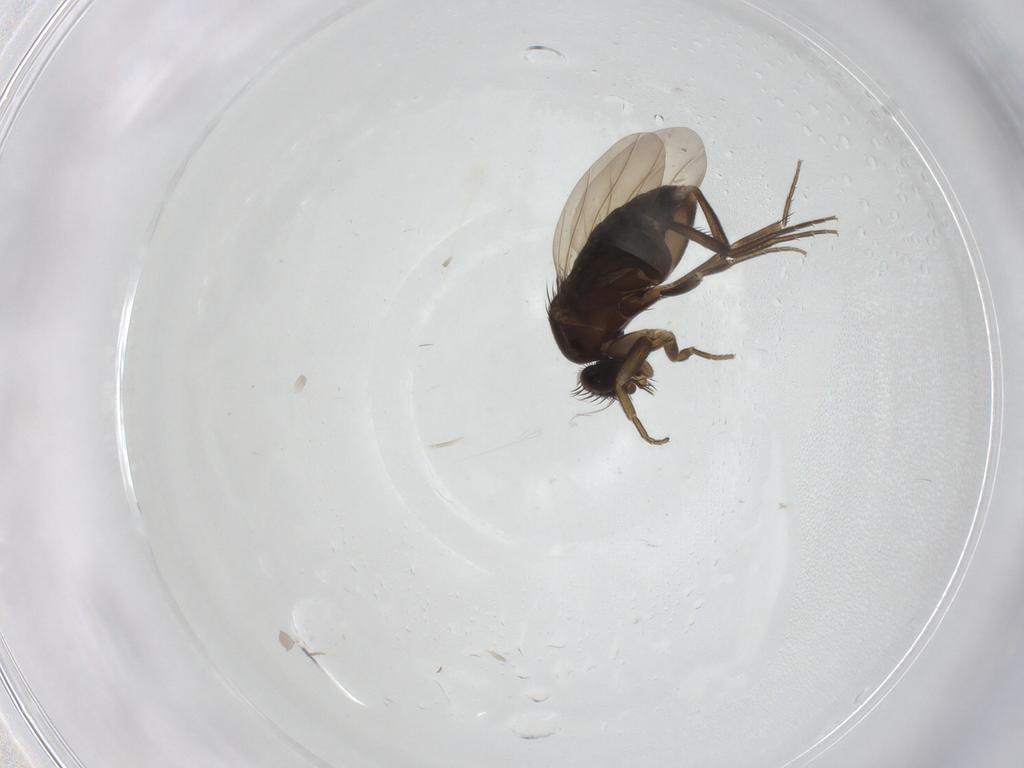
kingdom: Animalia
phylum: Arthropoda
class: Insecta
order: Diptera
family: Phoridae
